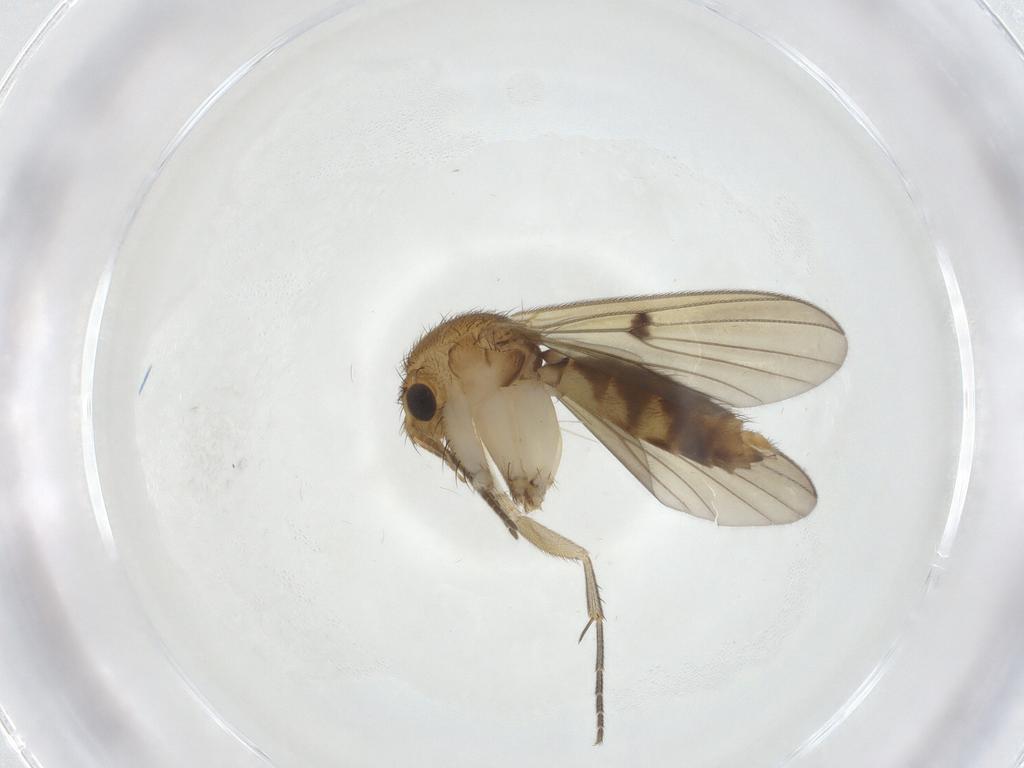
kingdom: Animalia
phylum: Arthropoda
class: Insecta
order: Diptera
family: Mycetophilidae
